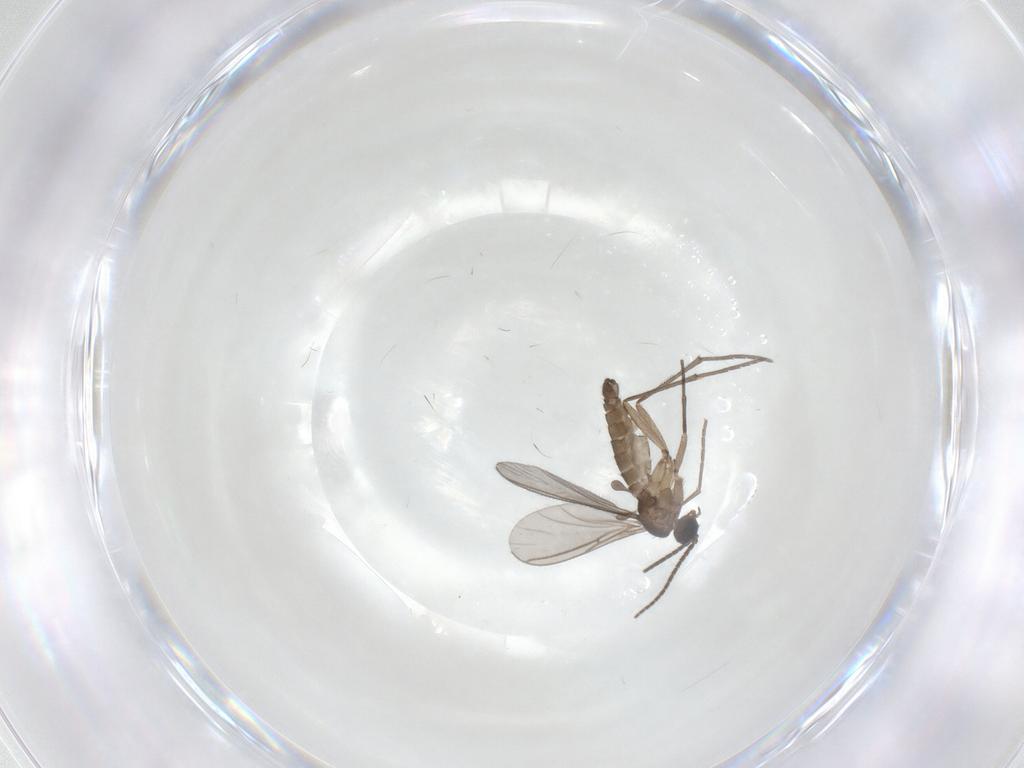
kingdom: Animalia
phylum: Arthropoda
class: Insecta
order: Diptera
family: Sciaridae
